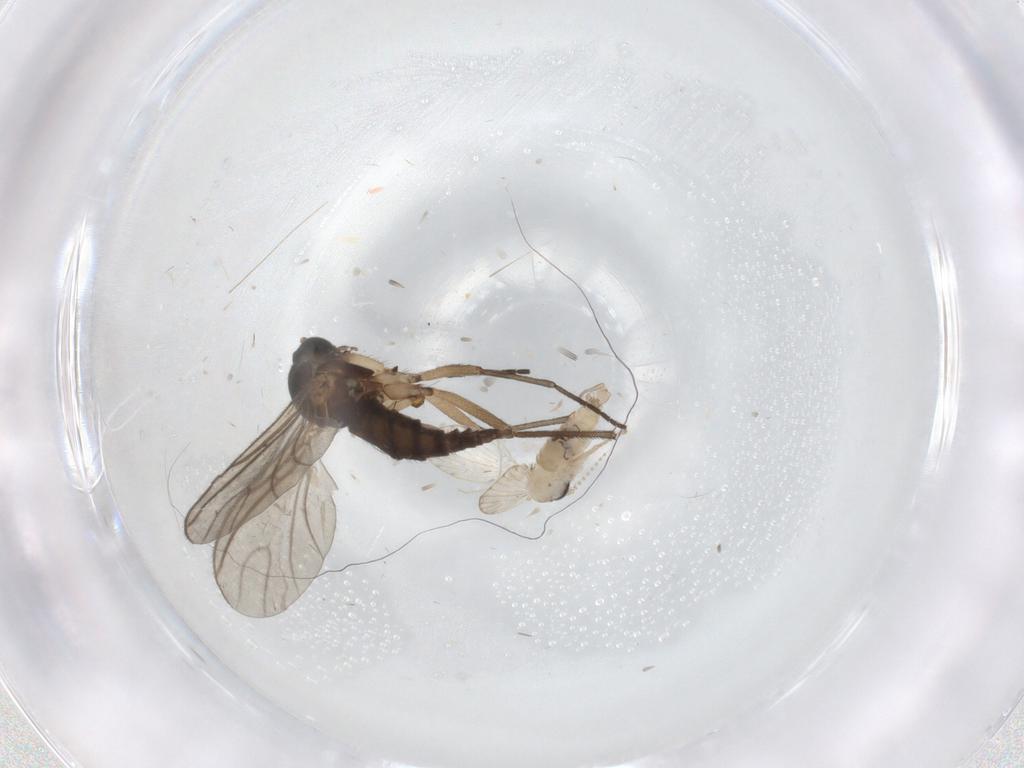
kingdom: Animalia
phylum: Arthropoda
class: Insecta
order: Diptera
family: Psychodidae
